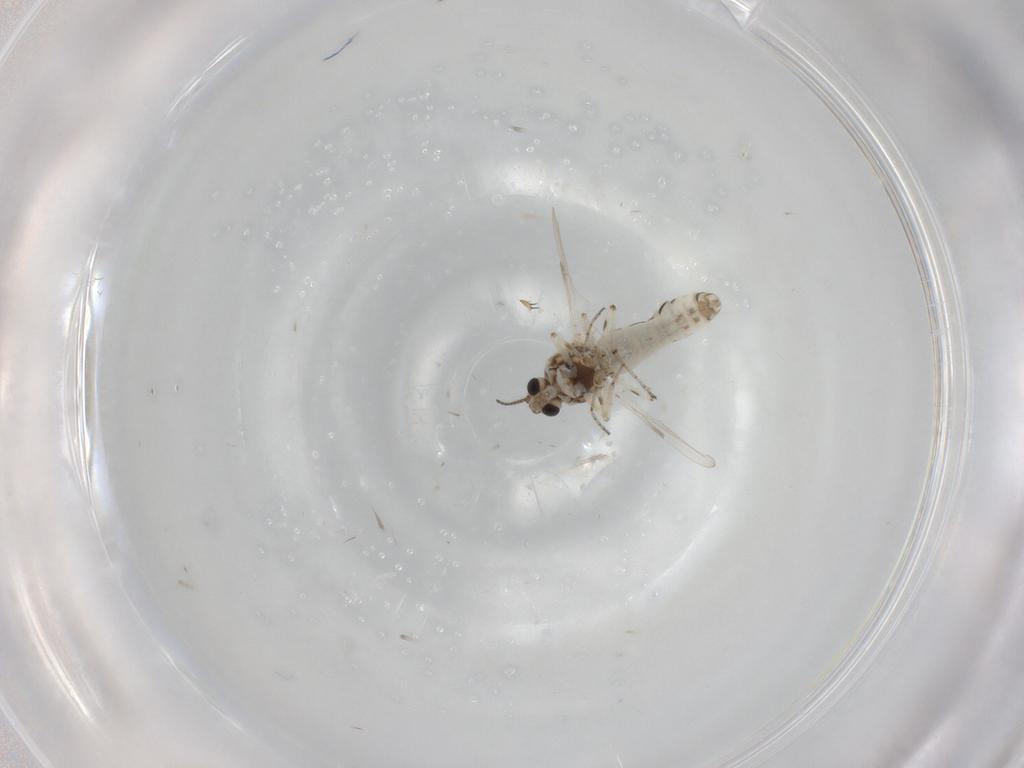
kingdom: Animalia
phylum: Arthropoda
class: Insecta
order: Diptera
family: Ceratopogonidae
